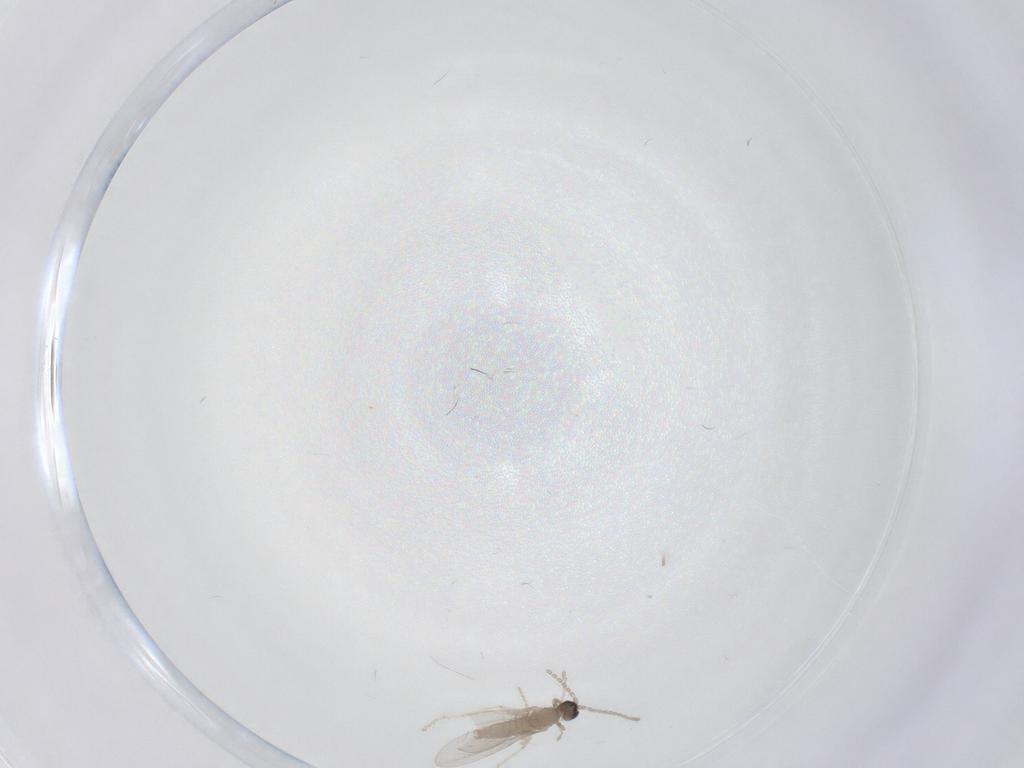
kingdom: Animalia
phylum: Arthropoda
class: Insecta
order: Diptera
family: Cecidomyiidae
